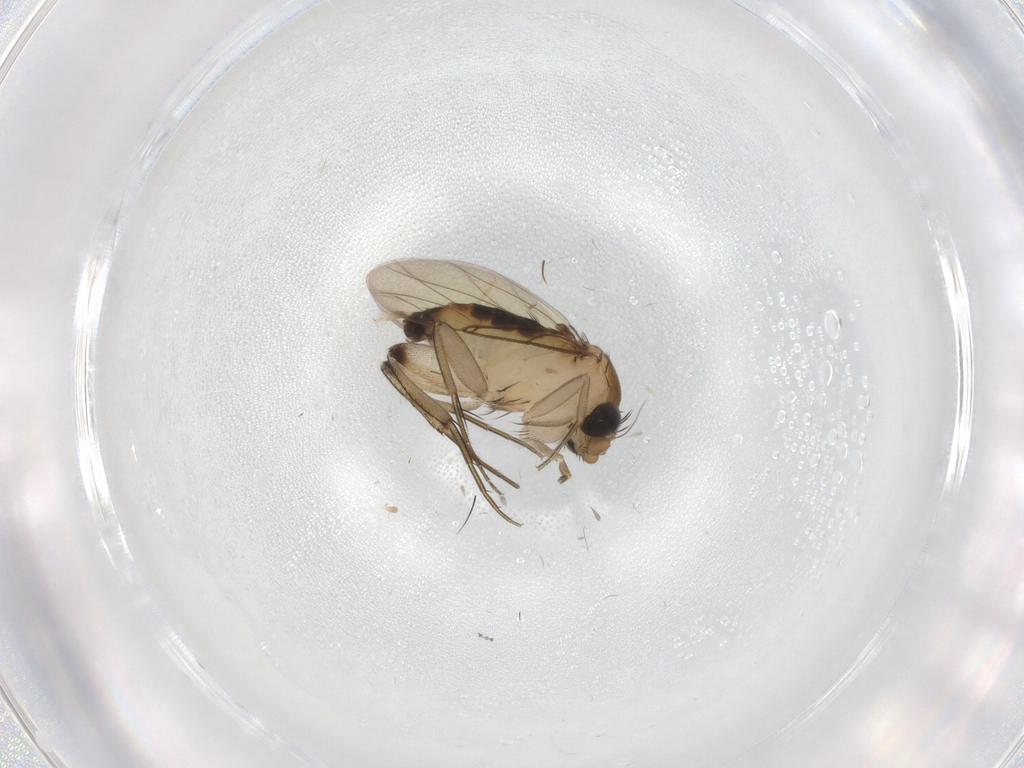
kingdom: Animalia
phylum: Arthropoda
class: Insecta
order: Diptera
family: Phoridae
